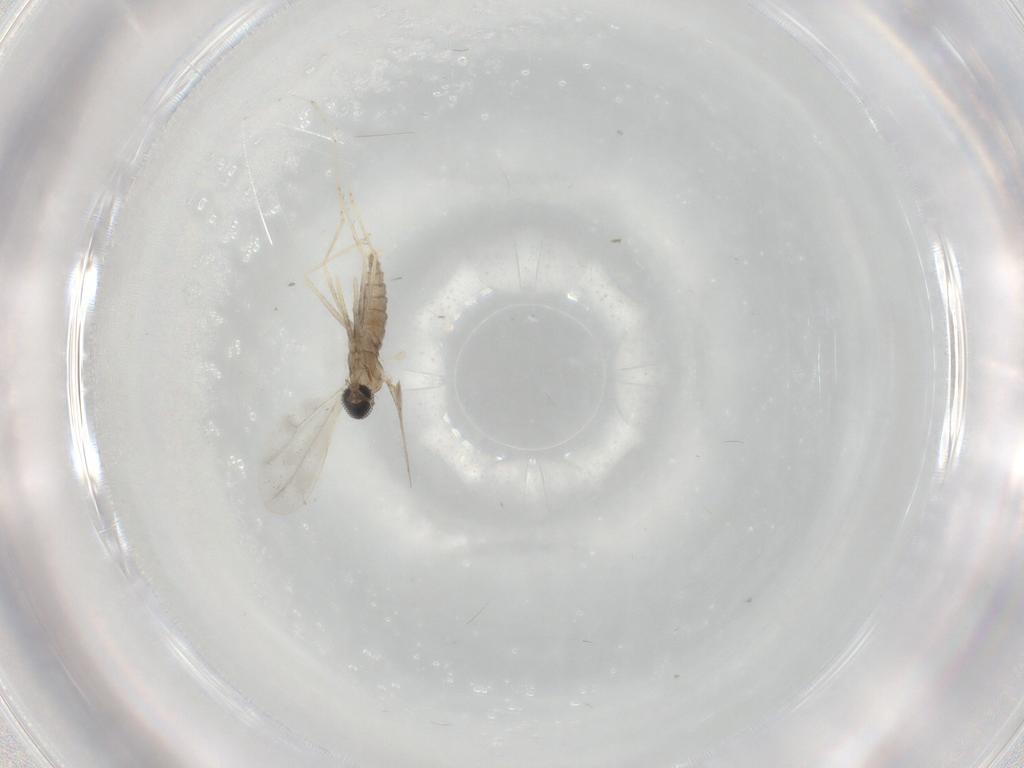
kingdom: Animalia
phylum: Arthropoda
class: Insecta
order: Diptera
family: Cecidomyiidae
